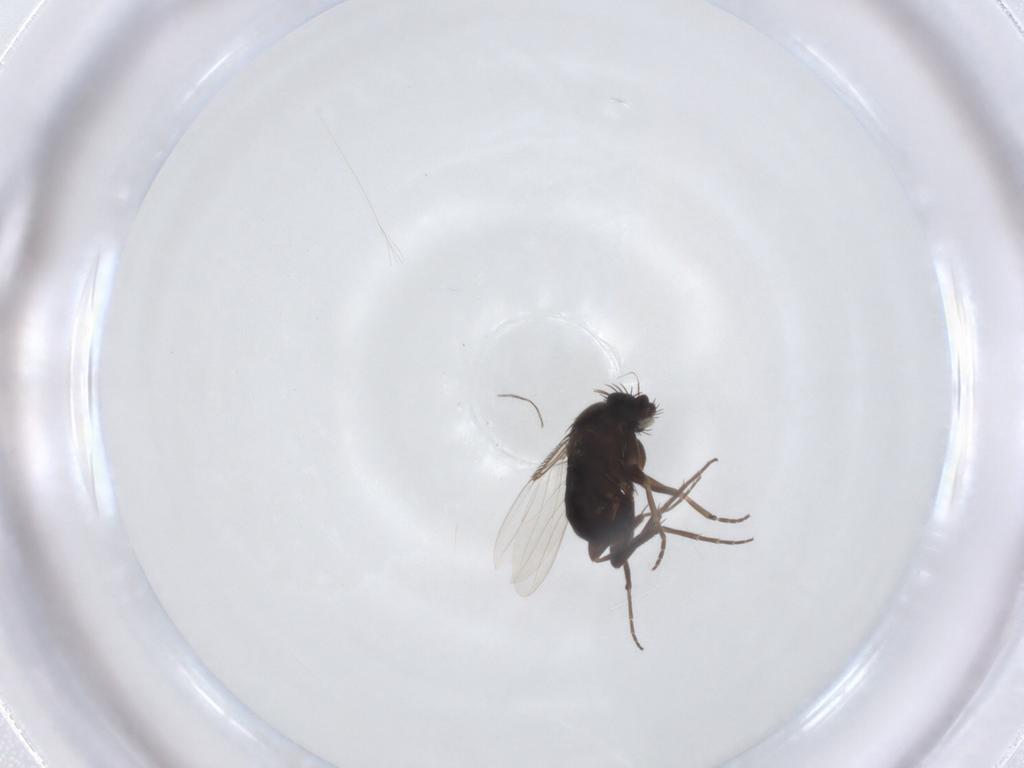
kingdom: Animalia
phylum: Arthropoda
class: Insecta
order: Diptera
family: Phoridae
